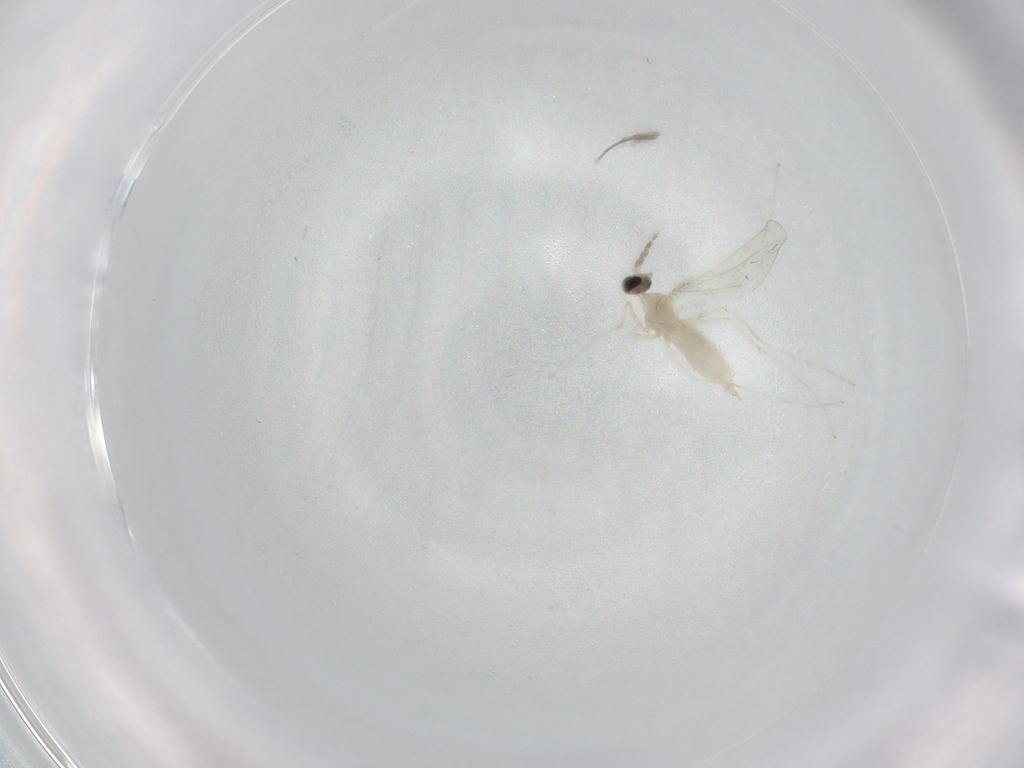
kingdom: Animalia
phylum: Arthropoda
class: Insecta
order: Diptera
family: Cecidomyiidae
